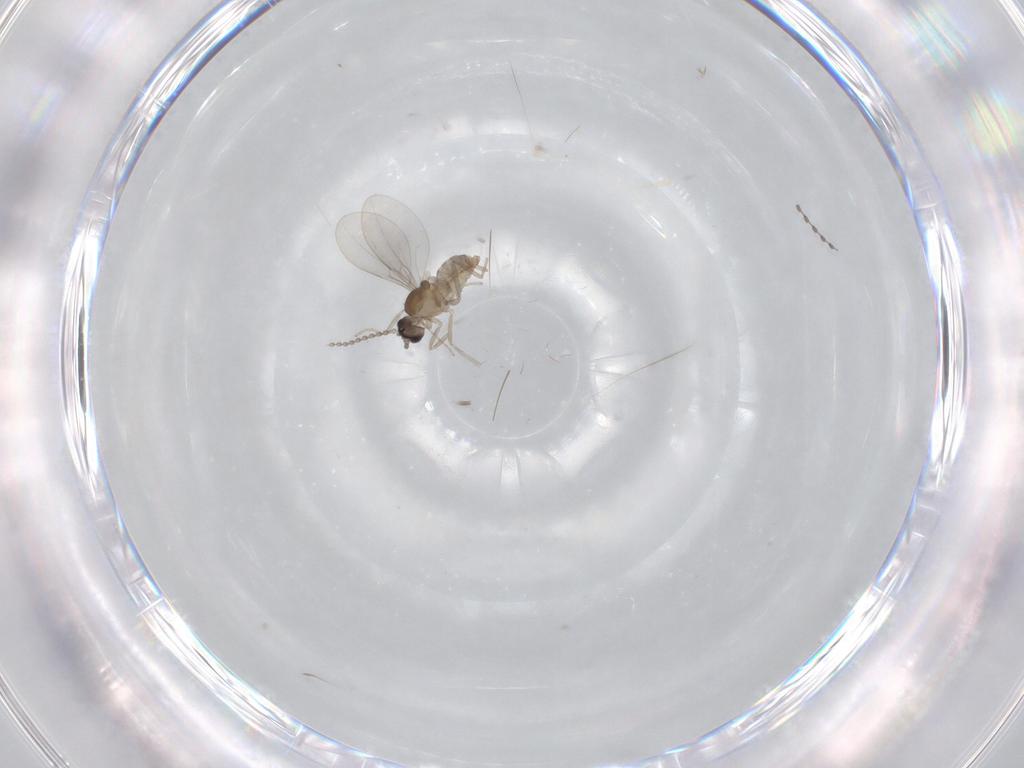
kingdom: Animalia
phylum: Arthropoda
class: Insecta
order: Diptera
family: Chironomidae
